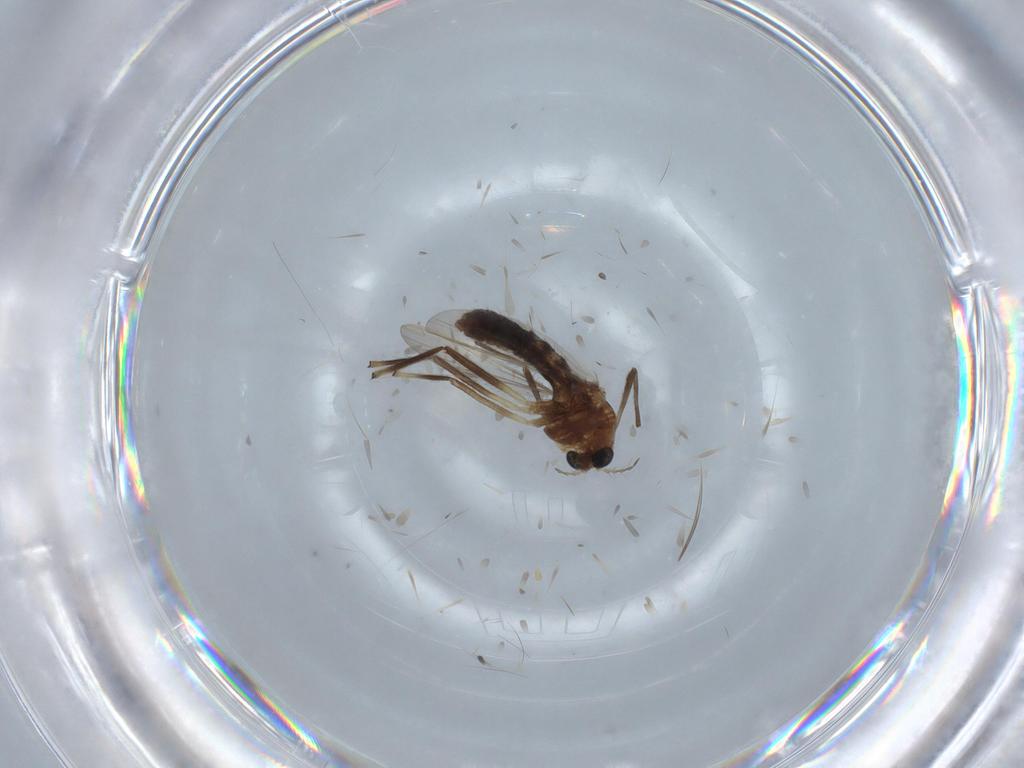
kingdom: Animalia
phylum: Arthropoda
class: Insecta
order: Diptera
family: Chironomidae
